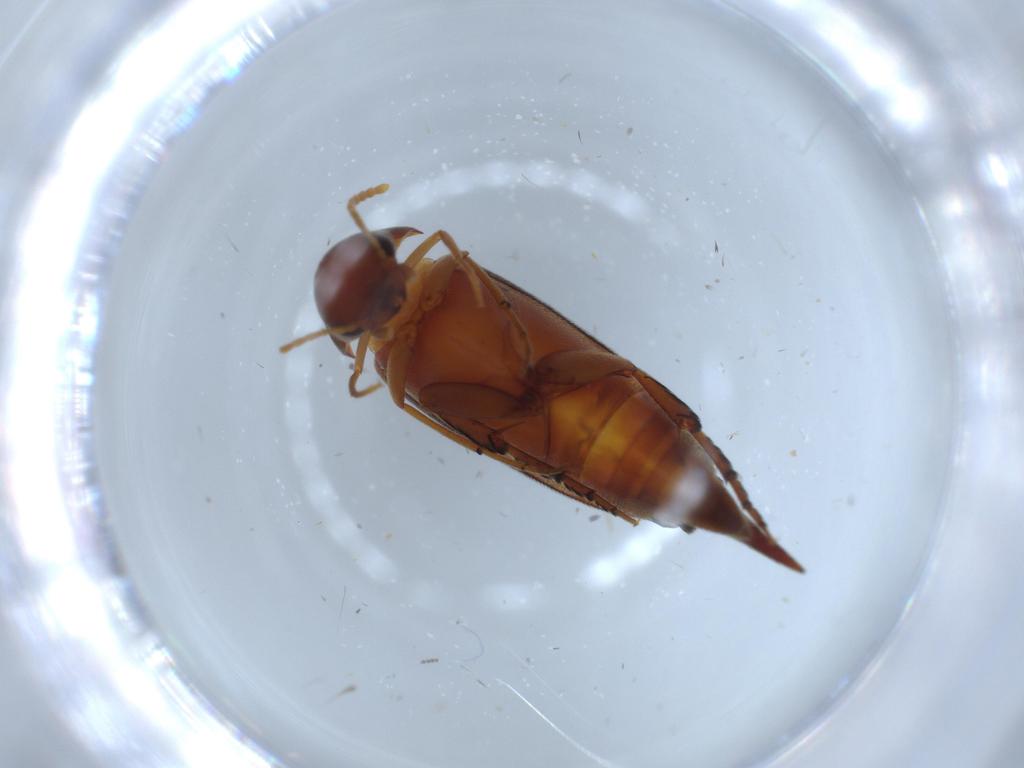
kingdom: Animalia
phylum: Arthropoda
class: Insecta
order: Coleoptera
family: Mordellidae
